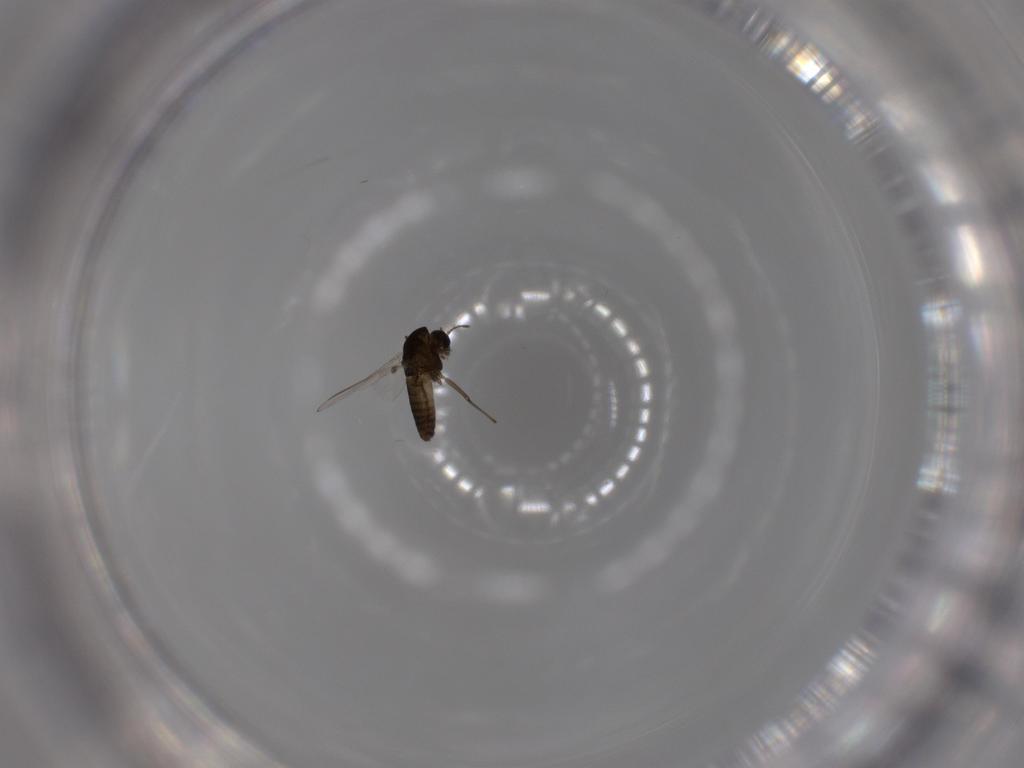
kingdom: Animalia
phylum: Arthropoda
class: Insecta
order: Diptera
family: Chironomidae
